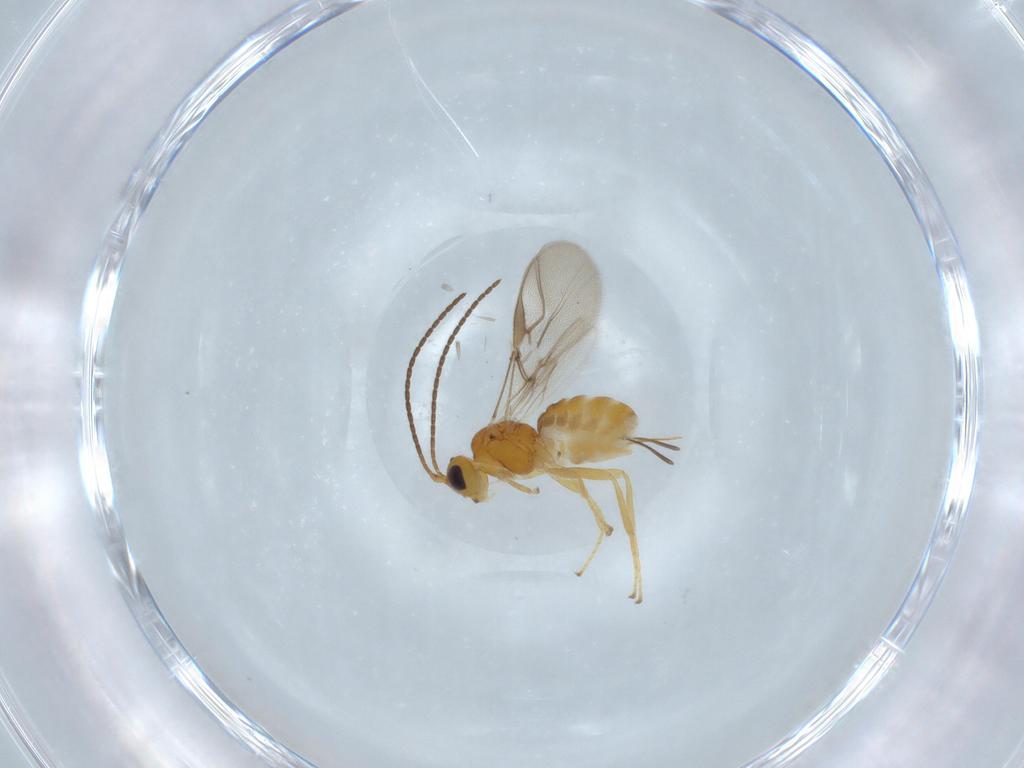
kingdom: Animalia
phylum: Arthropoda
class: Insecta
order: Hymenoptera
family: Braconidae
